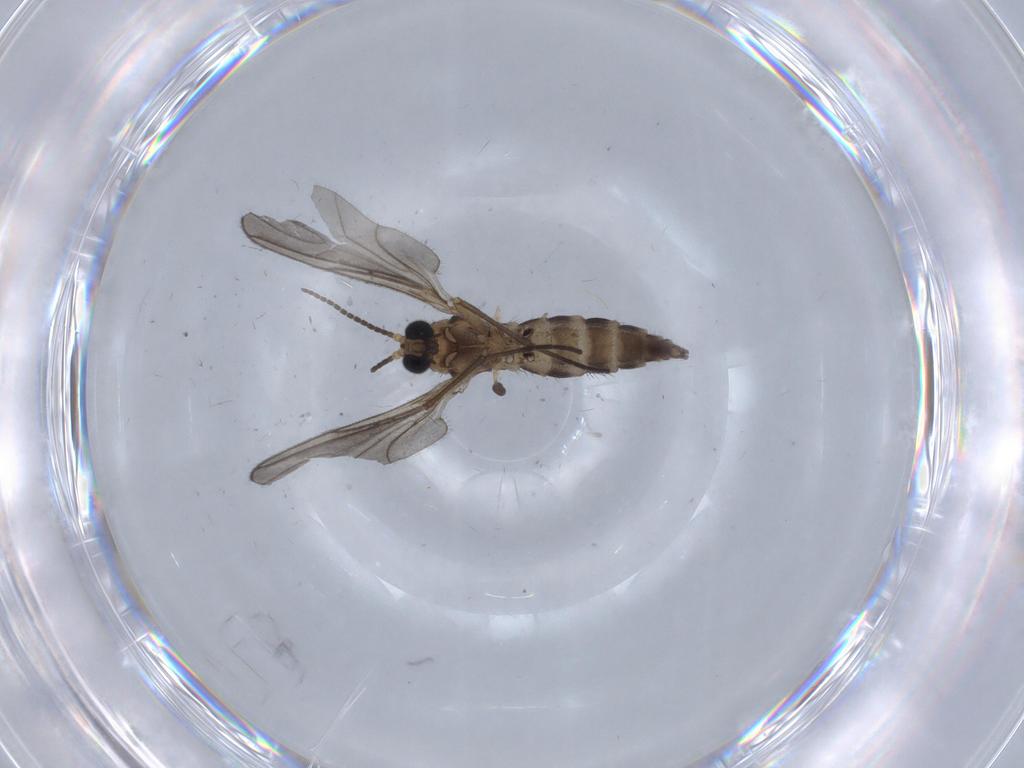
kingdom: Animalia
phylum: Arthropoda
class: Insecta
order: Diptera
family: Sciaridae
